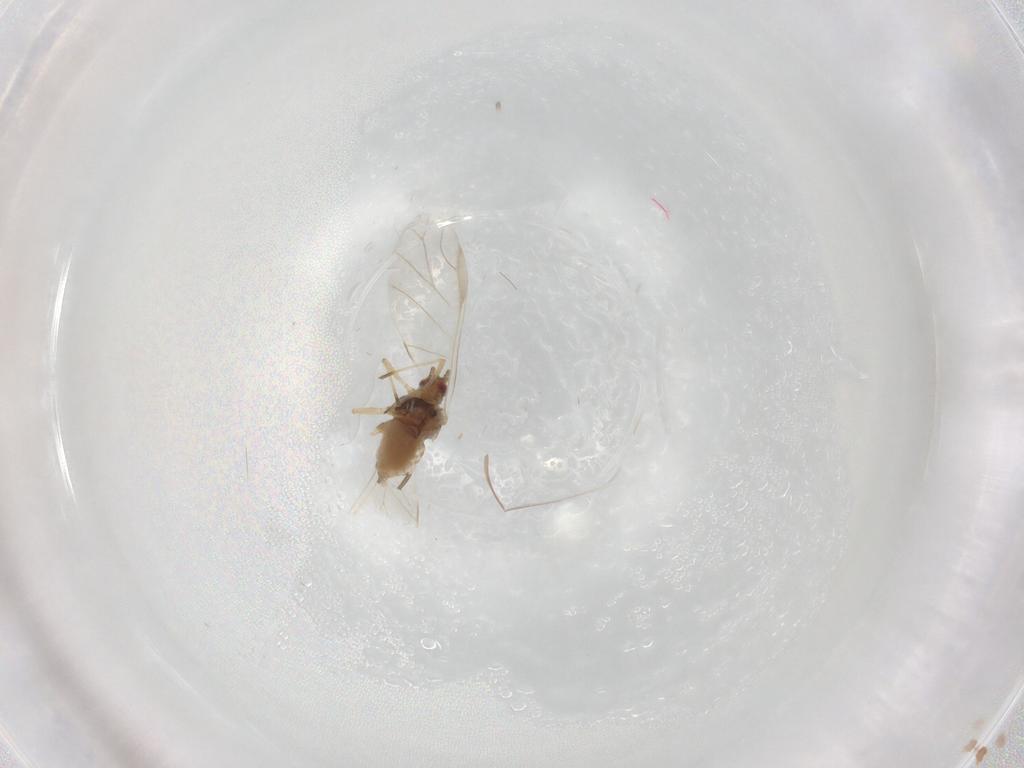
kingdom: Animalia
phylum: Arthropoda
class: Insecta
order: Hemiptera
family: Aphididae
